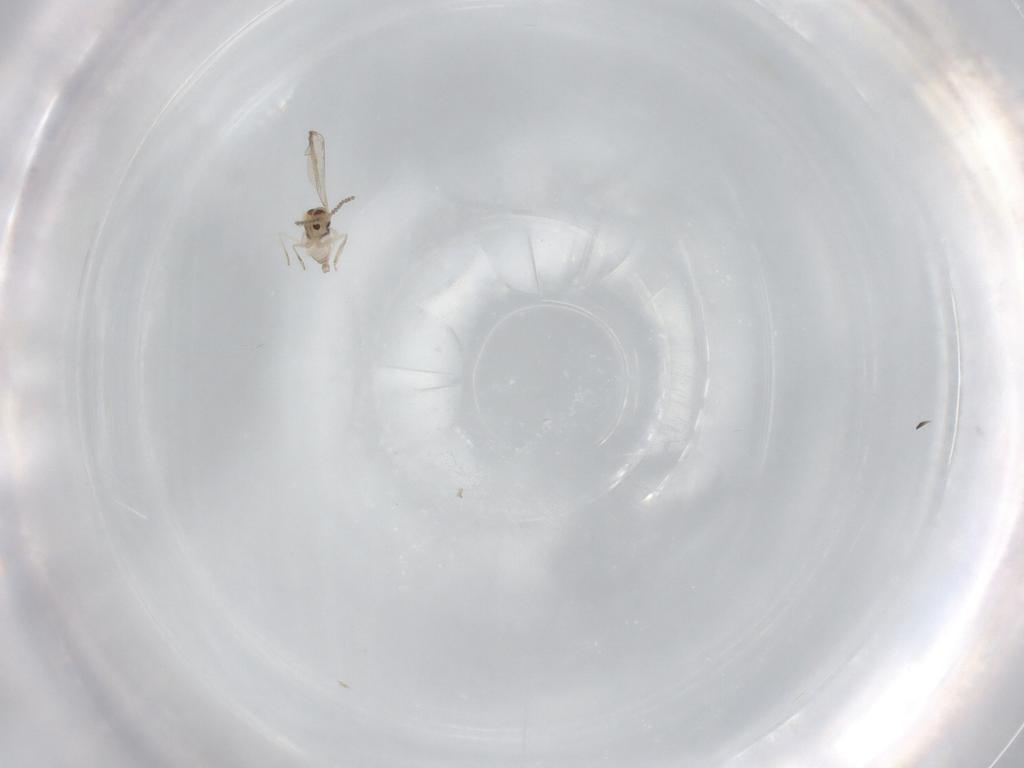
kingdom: Animalia
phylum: Arthropoda
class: Insecta
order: Diptera
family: Cecidomyiidae
